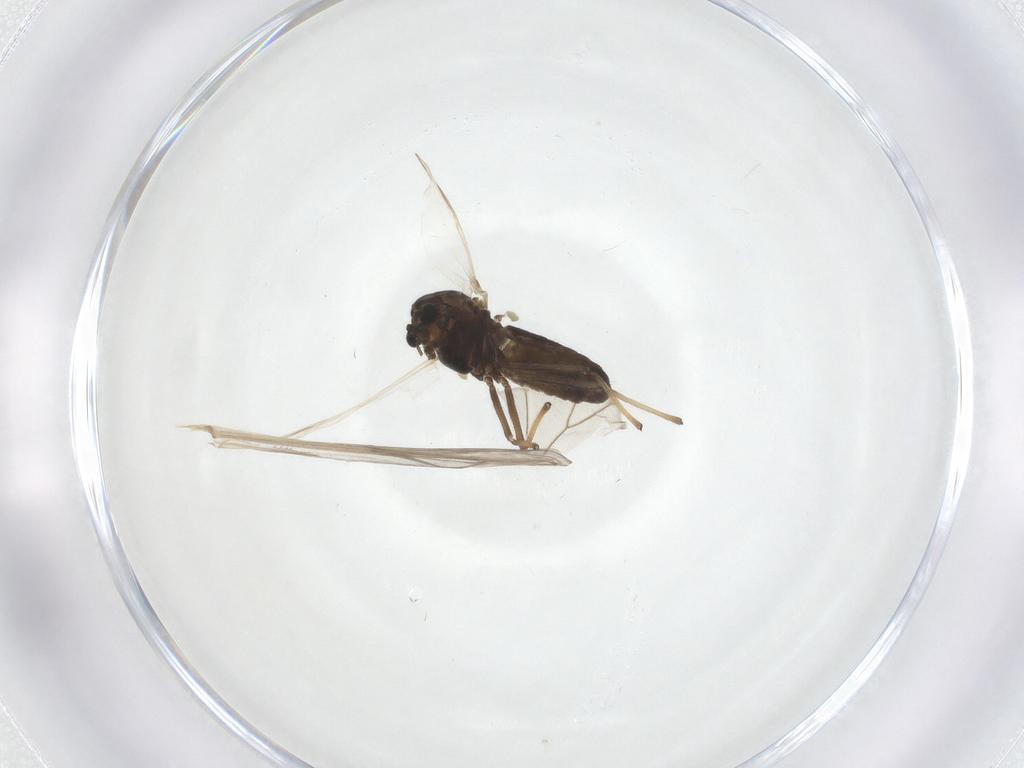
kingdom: Animalia
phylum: Arthropoda
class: Insecta
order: Diptera
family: Chironomidae
